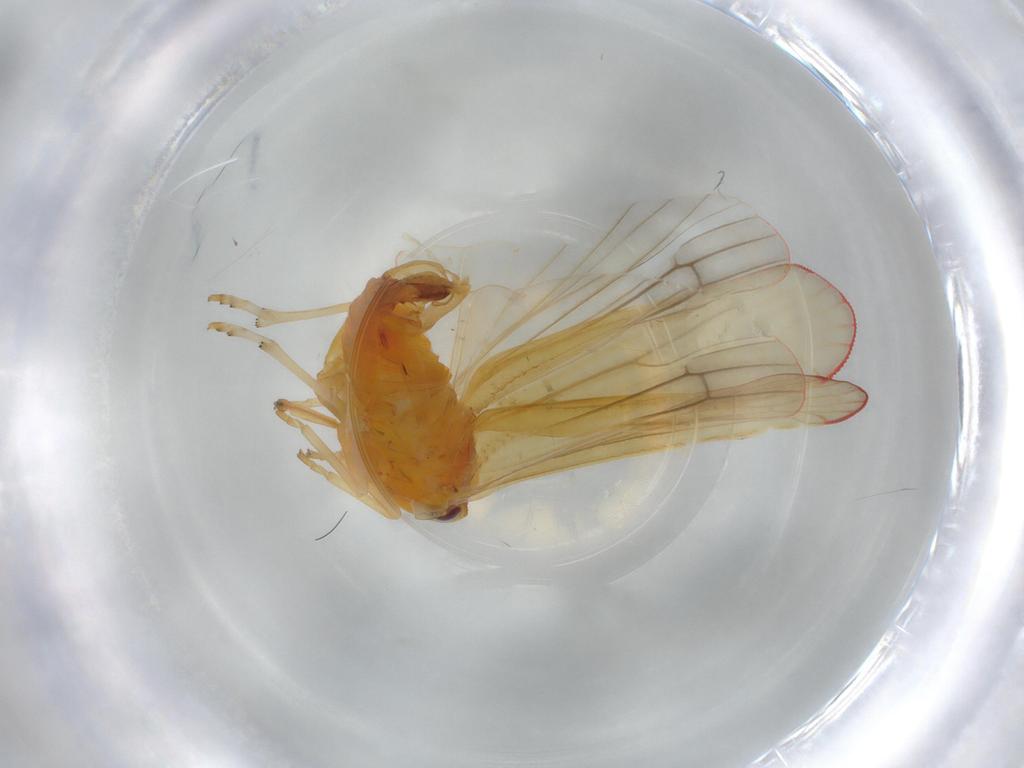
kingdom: Animalia
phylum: Arthropoda
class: Insecta
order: Hemiptera
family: Derbidae
